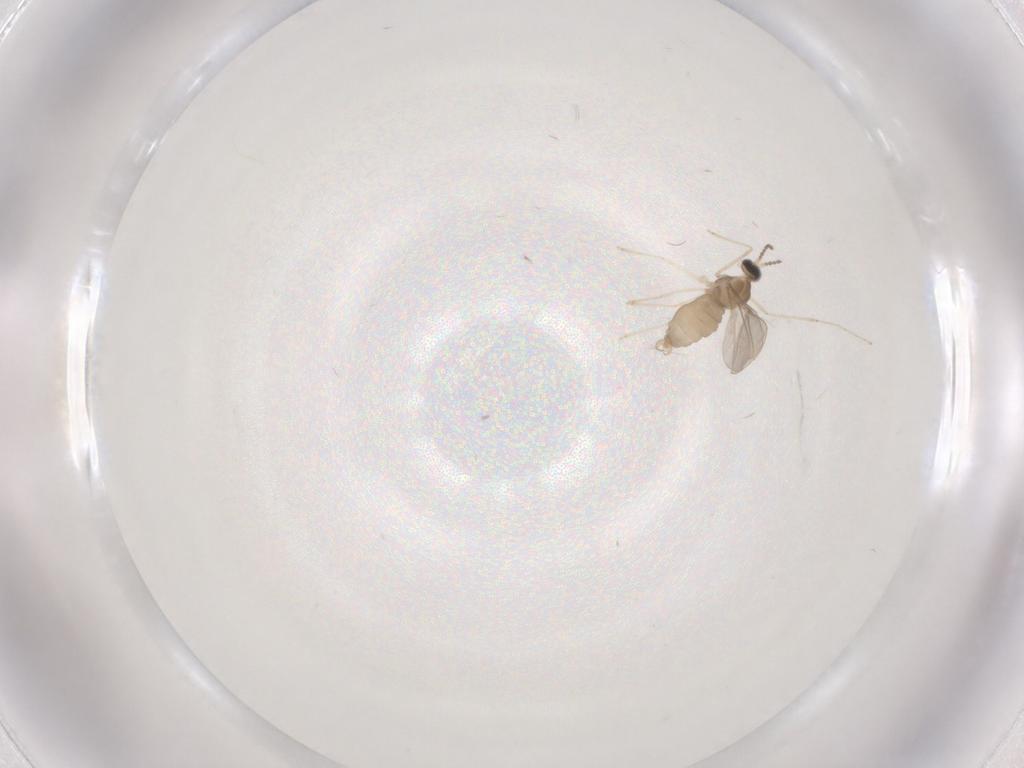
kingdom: Animalia
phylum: Arthropoda
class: Insecta
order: Diptera
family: Cecidomyiidae
